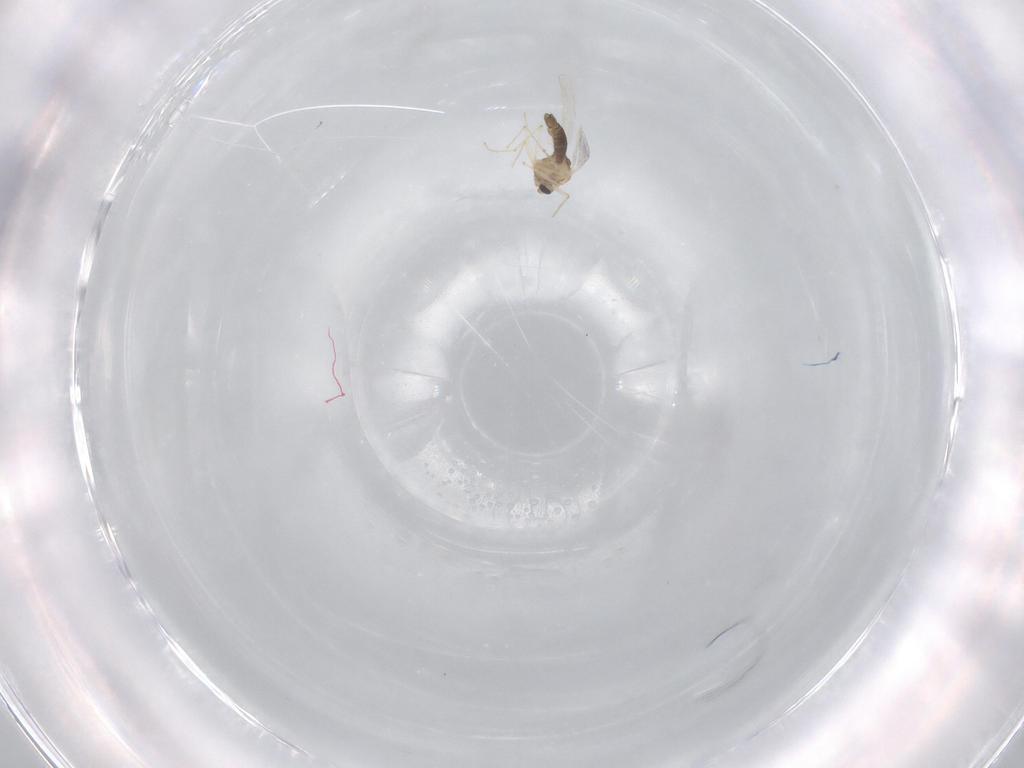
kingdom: Animalia
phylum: Arthropoda
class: Insecta
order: Diptera
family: Cecidomyiidae
